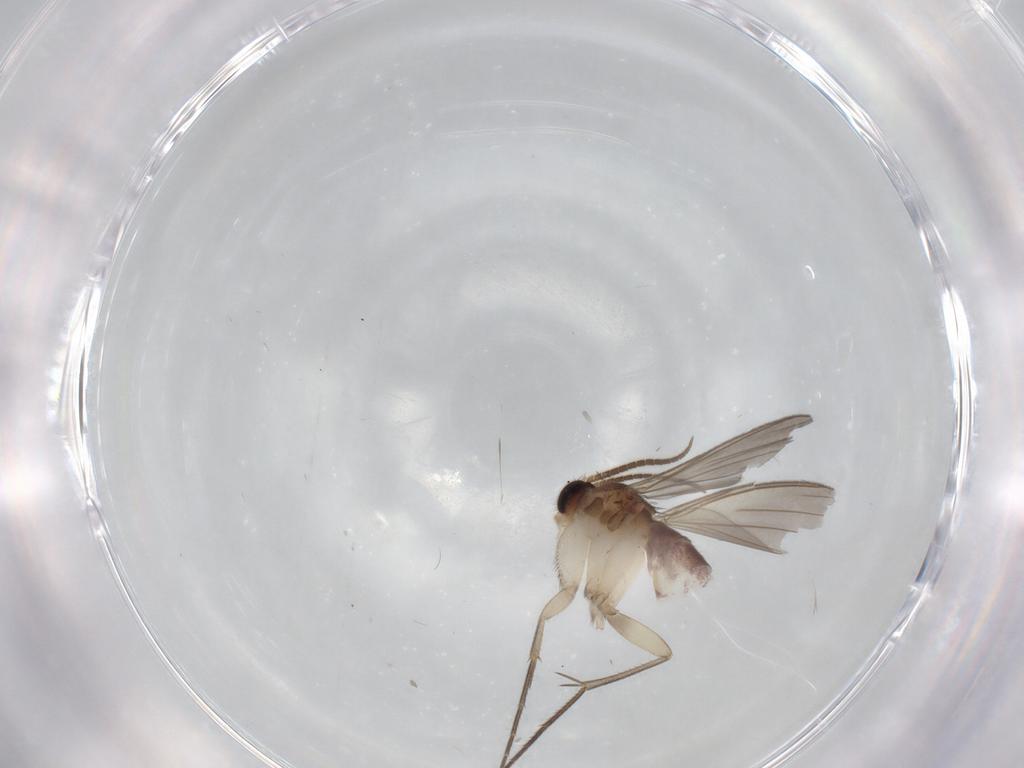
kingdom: Animalia
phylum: Arthropoda
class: Insecta
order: Diptera
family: Mycetophilidae
